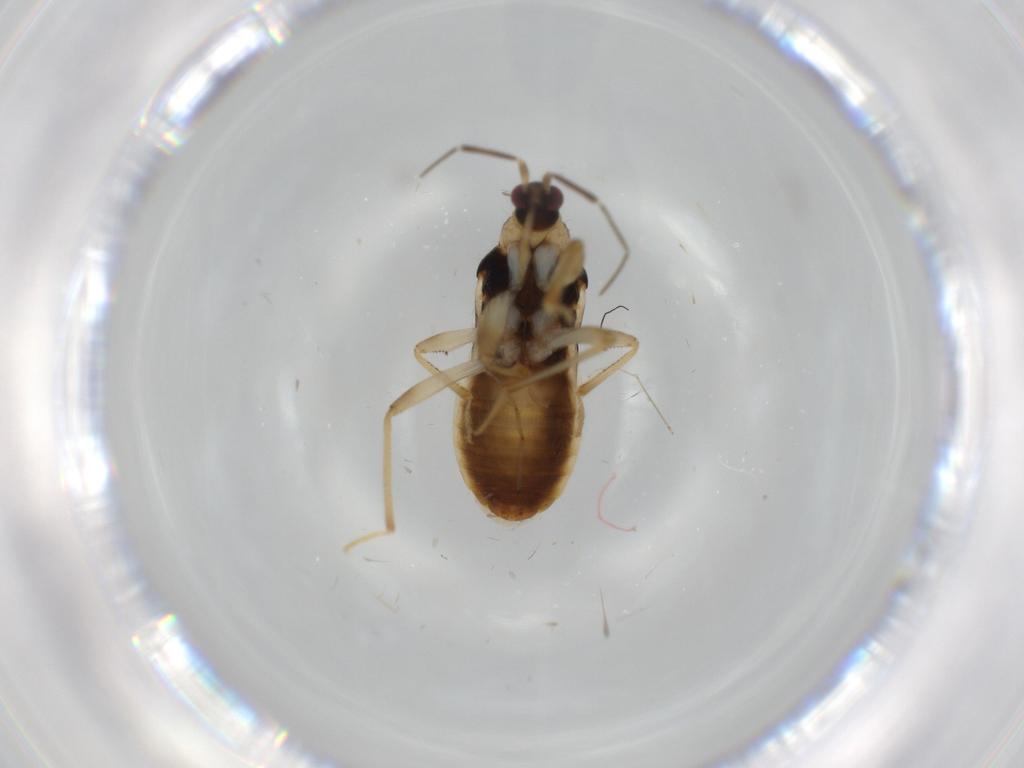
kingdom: Animalia
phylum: Arthropoda
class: Insecta
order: Hemiptera
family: Nabidae
